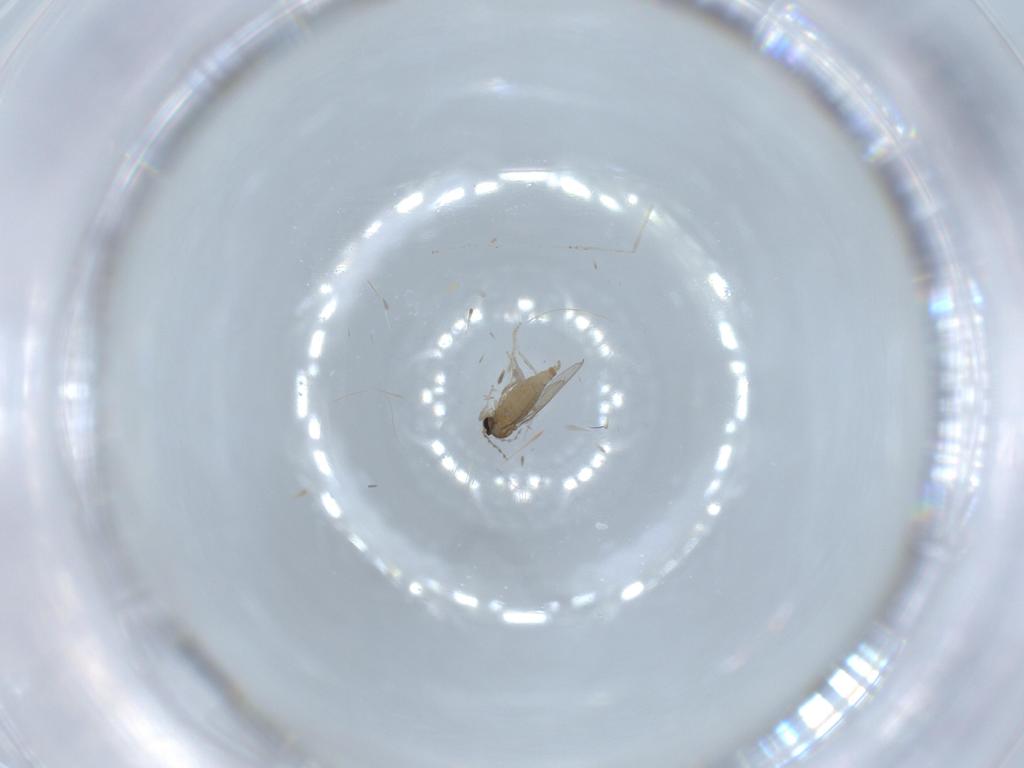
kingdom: Animalia
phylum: Arthropoda
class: Insecta
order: Diptera
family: Cecidomyiidae
